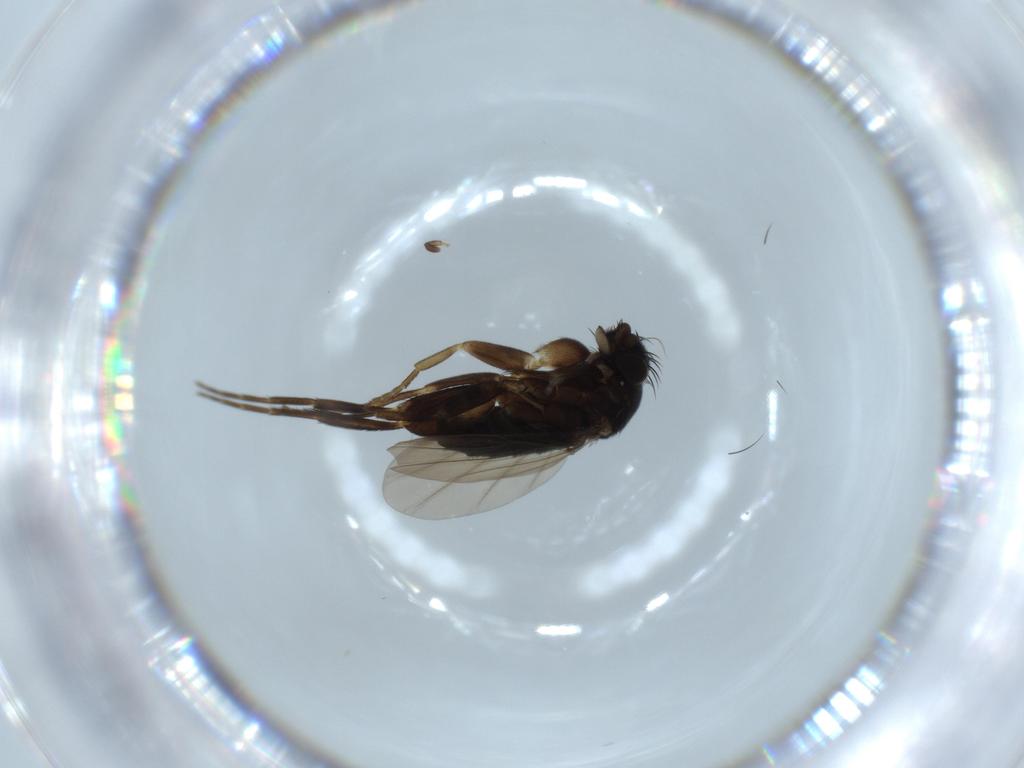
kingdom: Animalia
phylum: Arthropoda
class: Insecta
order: Diptera
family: Phoridae
